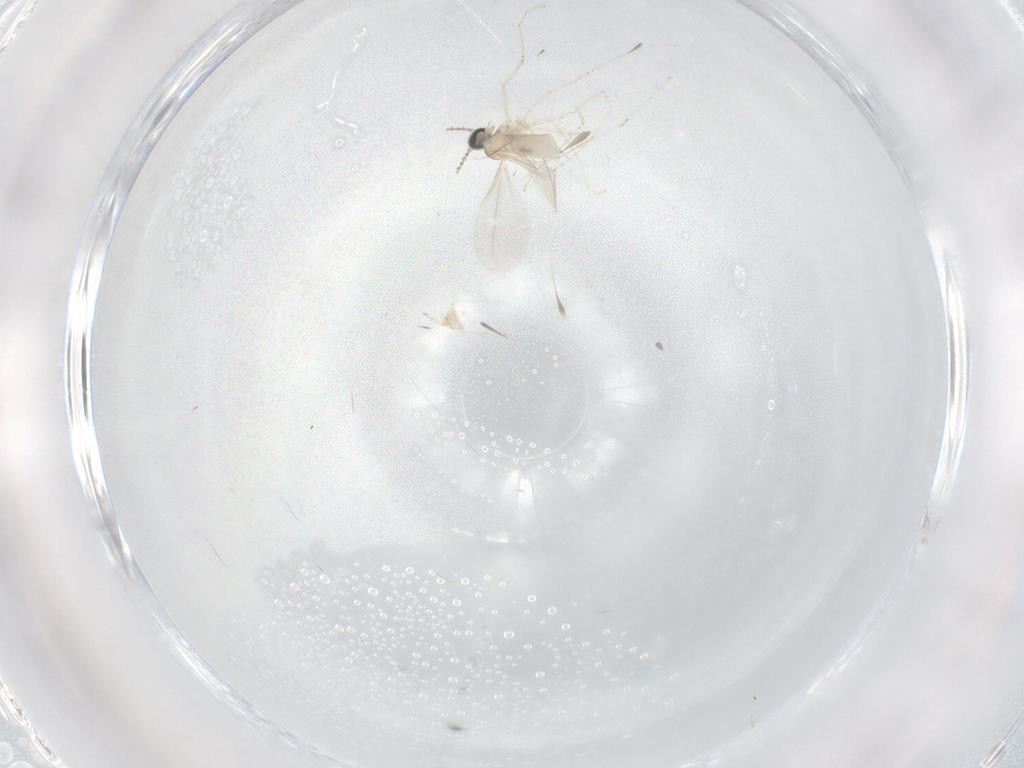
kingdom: Animalia
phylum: Arthropoda
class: Insecta
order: Diptera
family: Cecidomyiidae
